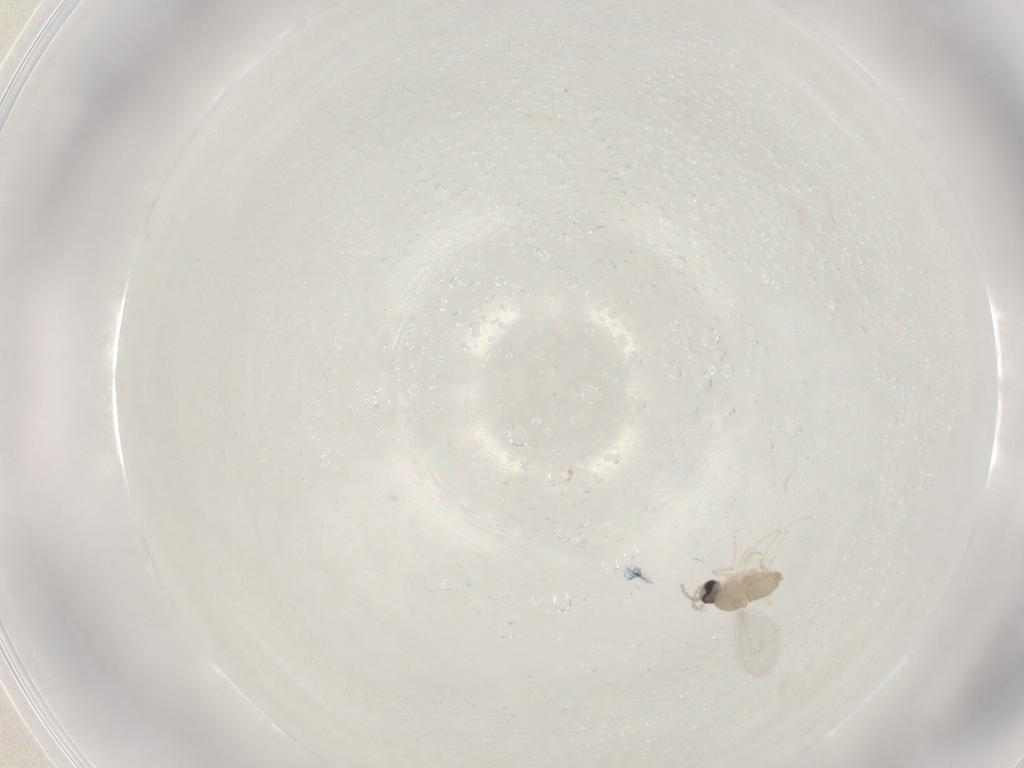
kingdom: Animalia
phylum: Arthropoda
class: Insecta
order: Diptera
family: Cecidomyiidae
